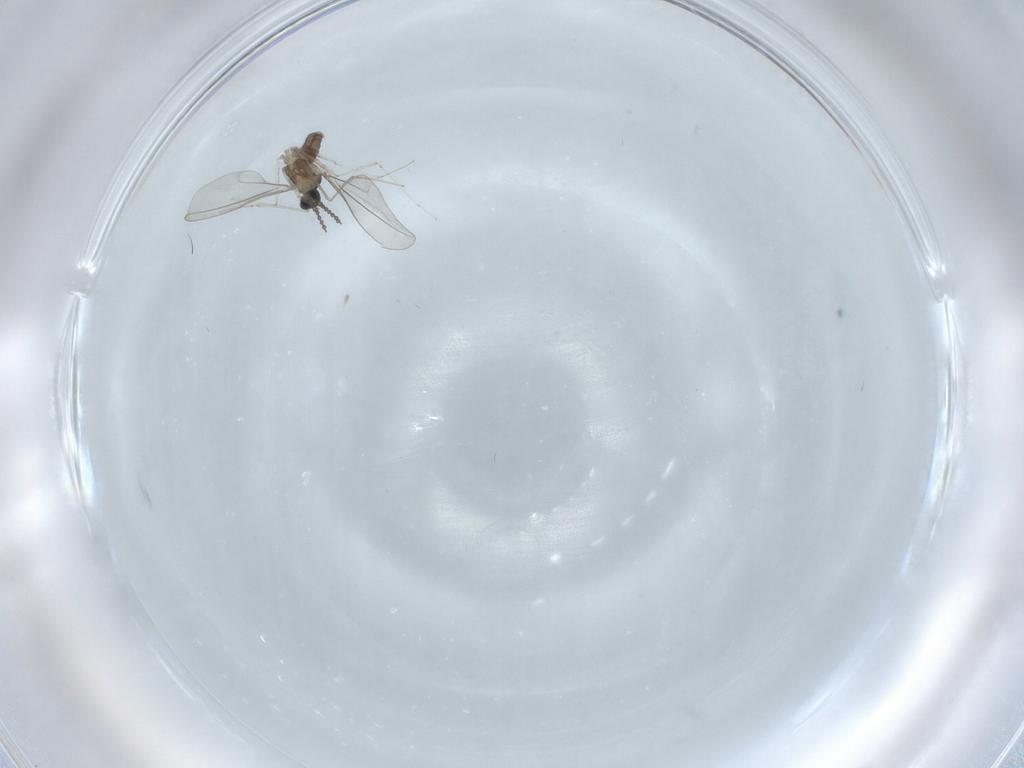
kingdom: Animalia
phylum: Arthropoda
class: Insecta
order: Diptera
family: Cecidomyiidae
